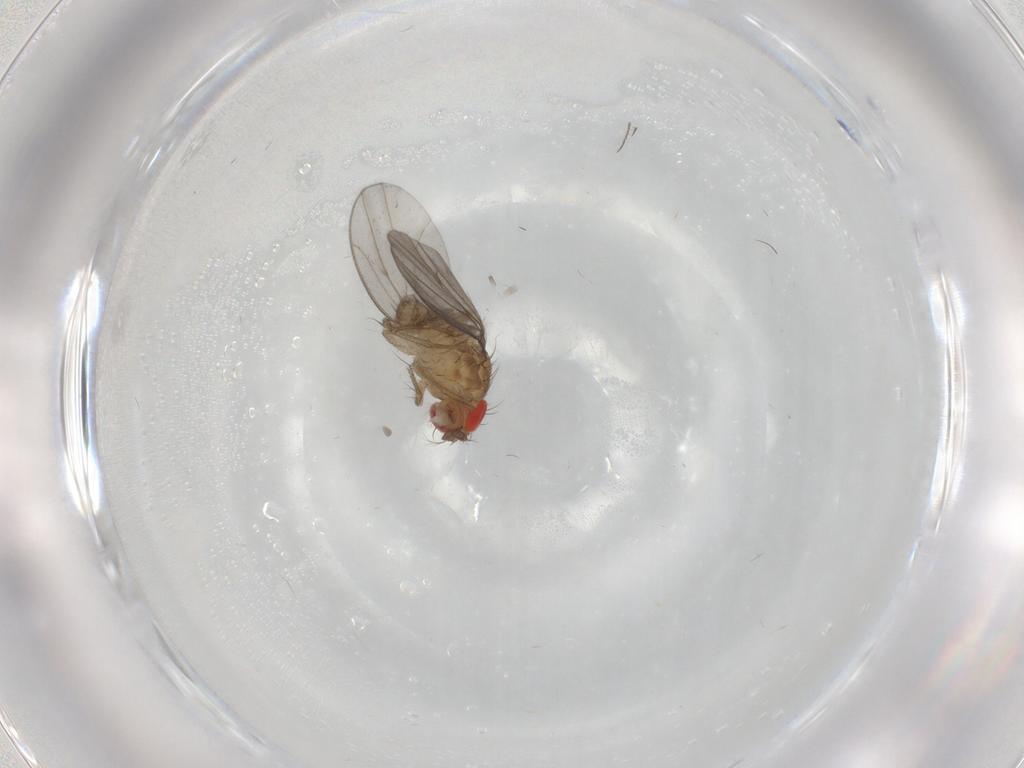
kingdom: Animalia
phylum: Arthropoda
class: Insecta
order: Diptera
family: Drosophilidae
